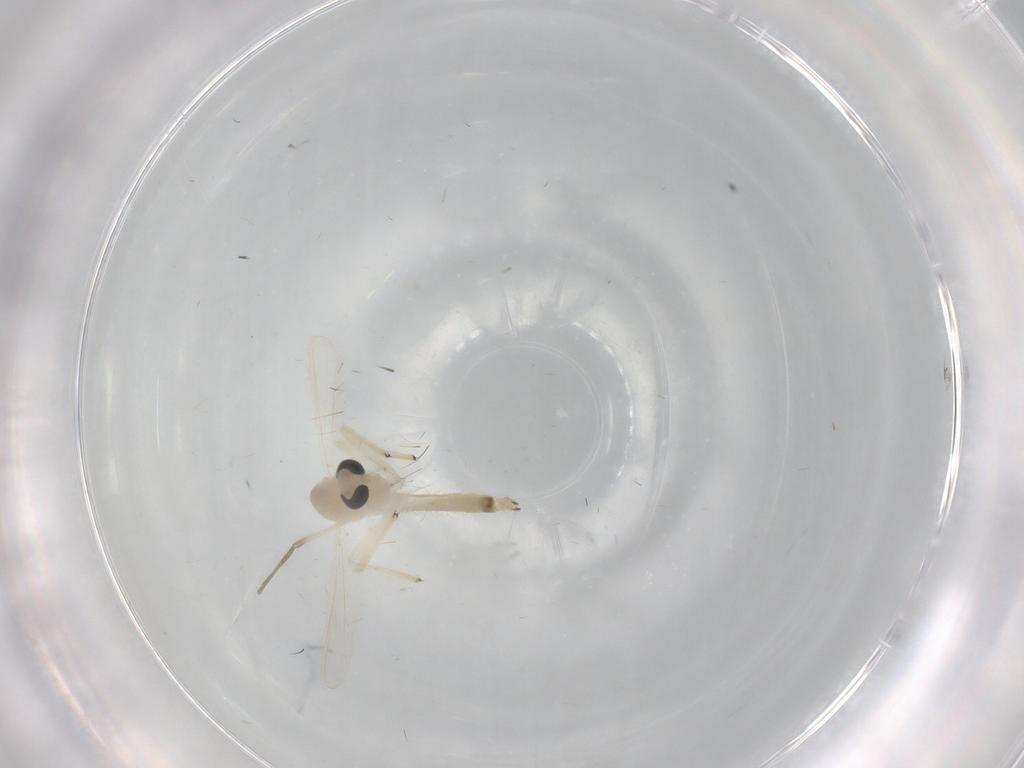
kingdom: Animalia
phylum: Arthropoda
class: Insecta
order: Diptera
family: Chironomidae
